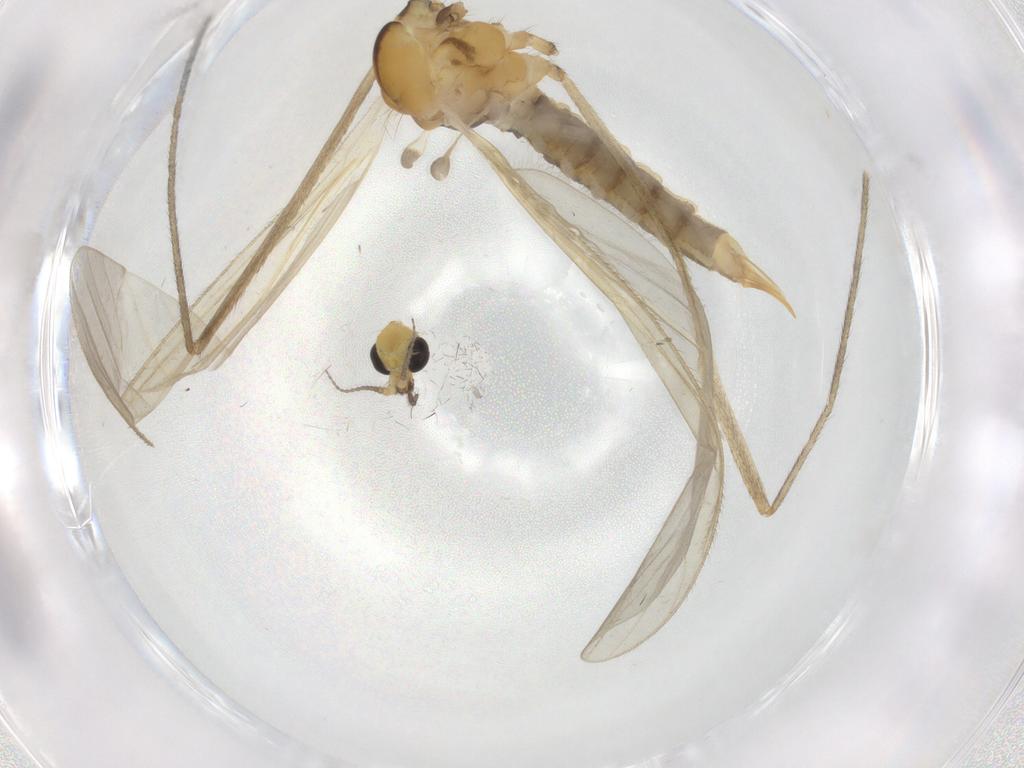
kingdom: Animalia
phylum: Arthropoda
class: Insecta
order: Diptera
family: Limoniidae
